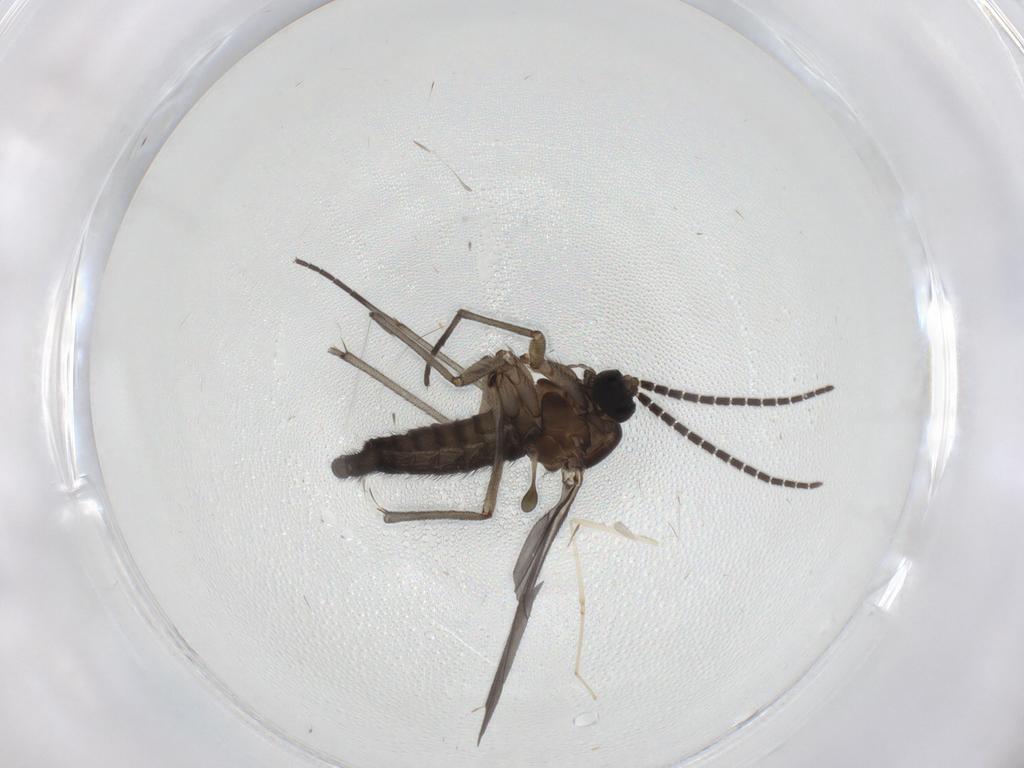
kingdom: Animalia
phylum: Arthropoda
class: Insecta
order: Diptera
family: Sciaridae
